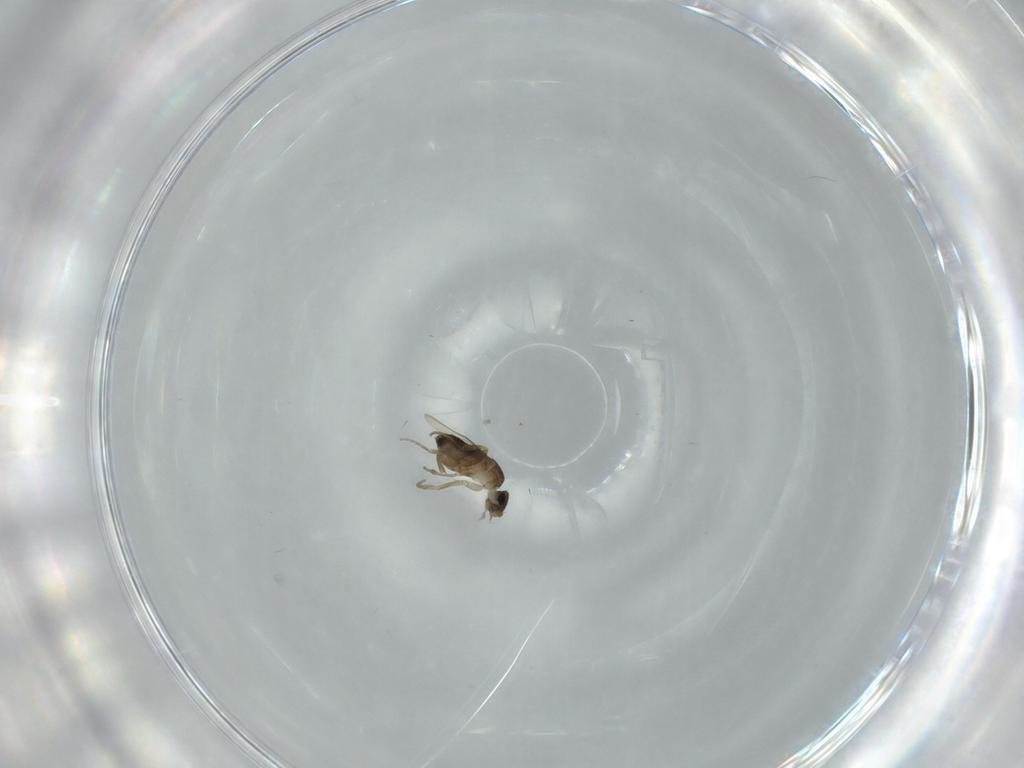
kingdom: Animalia
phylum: Arthropoda
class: Insecta
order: Diptera
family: Phoridae
